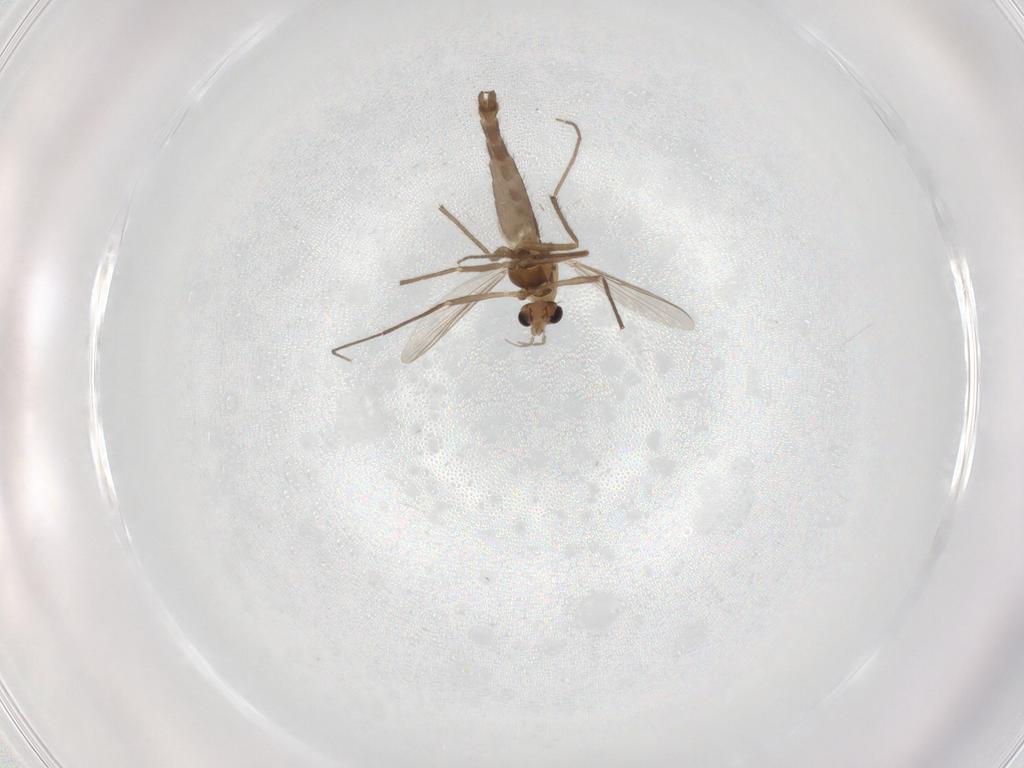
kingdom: Animalia
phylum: Arthropoda
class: Insecta
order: Diptera
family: Chironomidae
